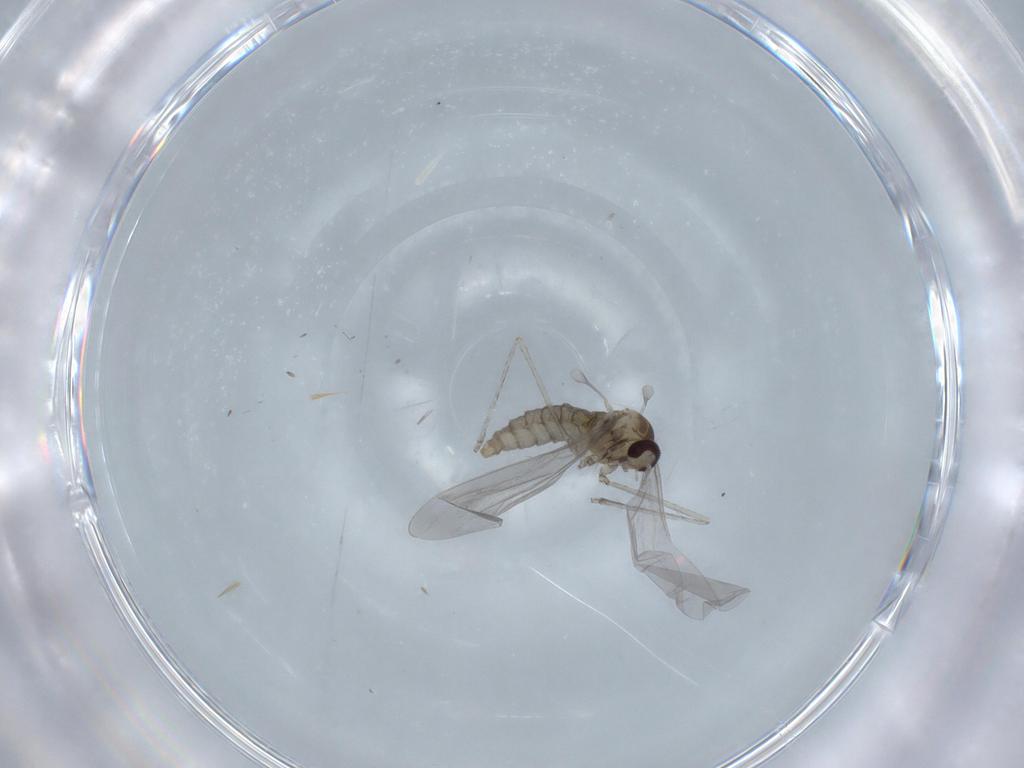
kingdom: Animalia
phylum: Arthropoda
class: Insecta
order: Diptera
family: Cecidomyiidae
